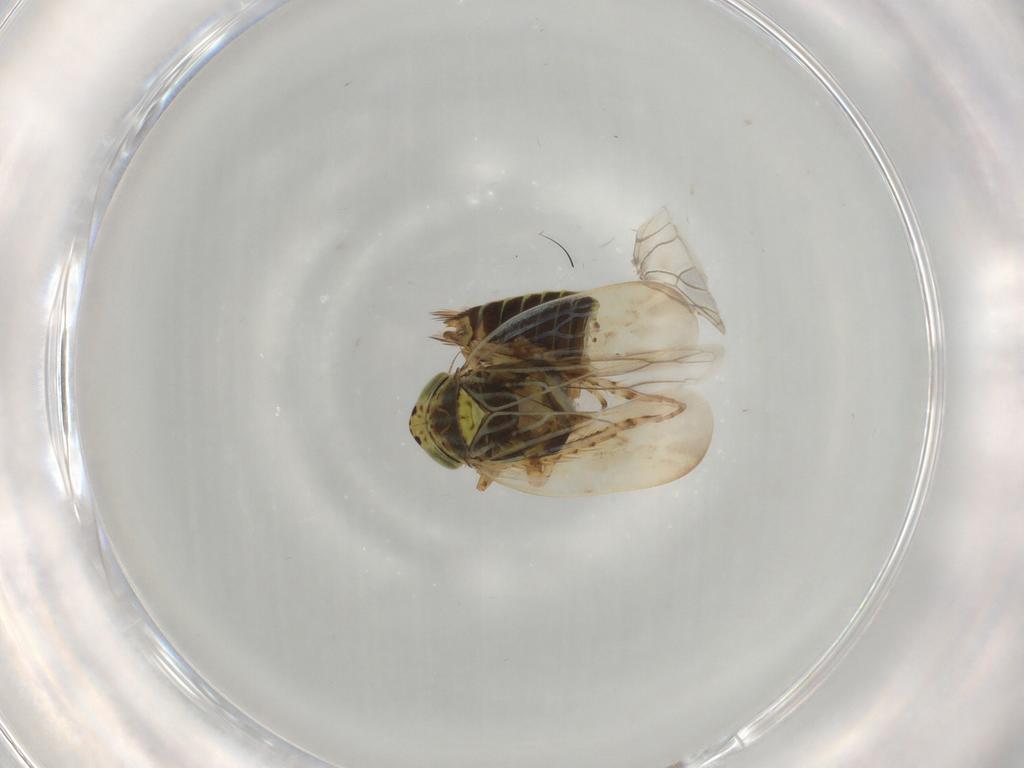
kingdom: Animalia
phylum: Arthropoda
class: Insecta
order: Hemiptera
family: Cicadellidae
